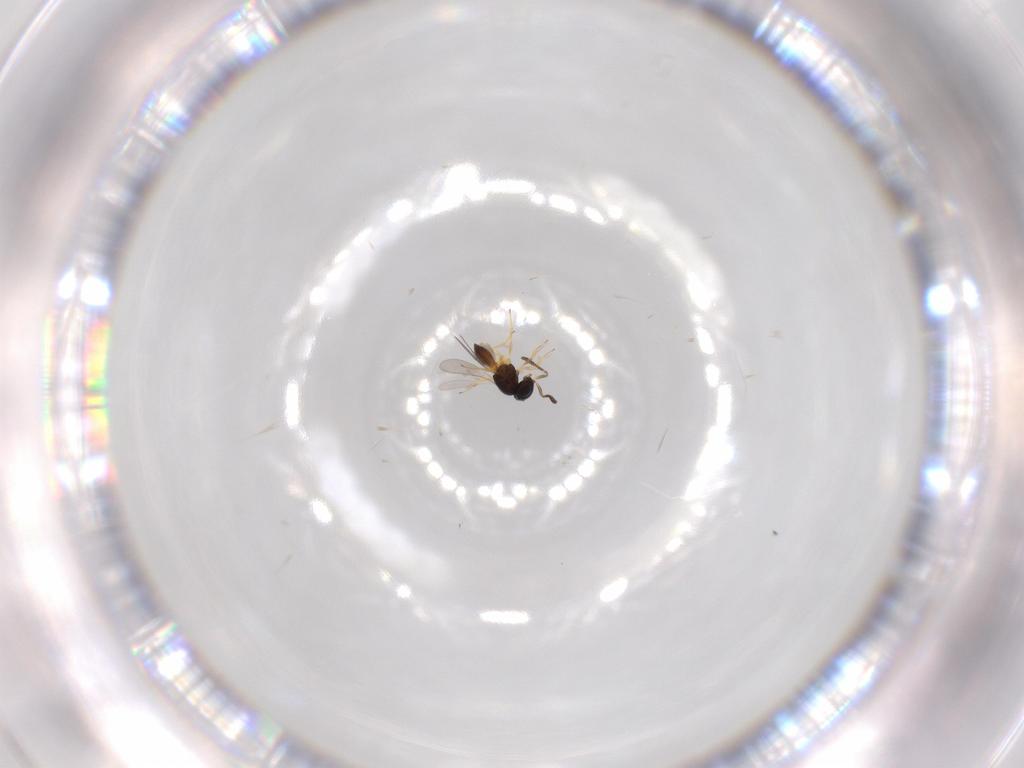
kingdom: Animalia
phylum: Arthropoda
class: Insecta
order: Hymenoptera
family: Scelionidae
